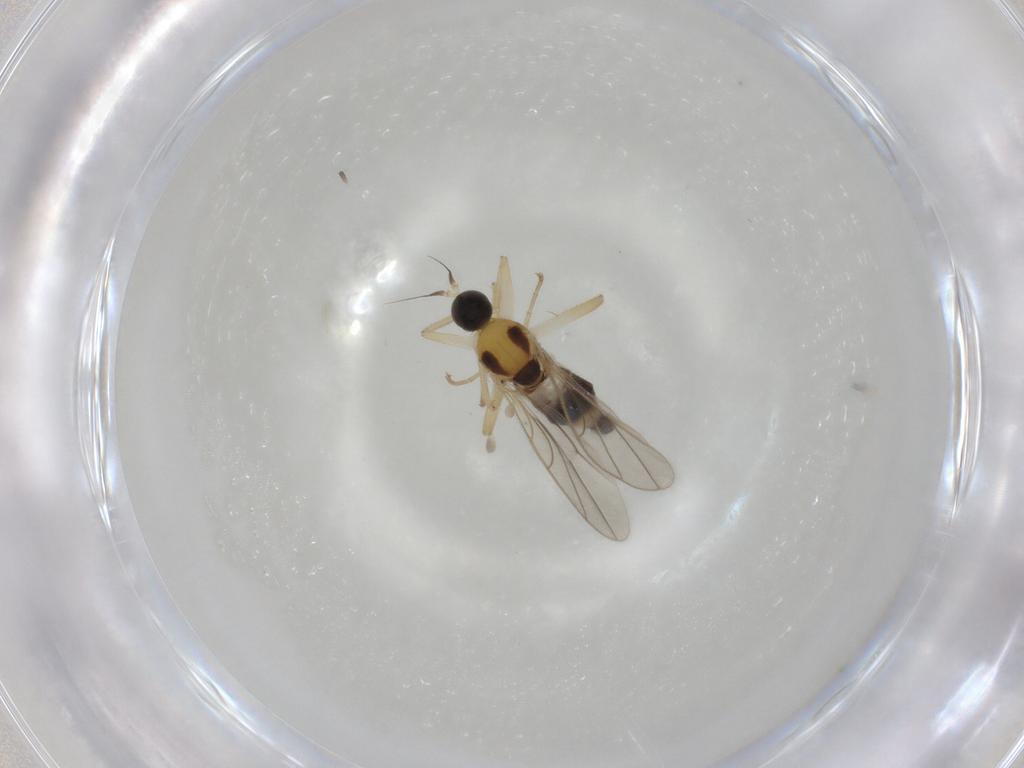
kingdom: Animalia
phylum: Arthropoda
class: Insecta
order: Diptera
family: Hybotidae
